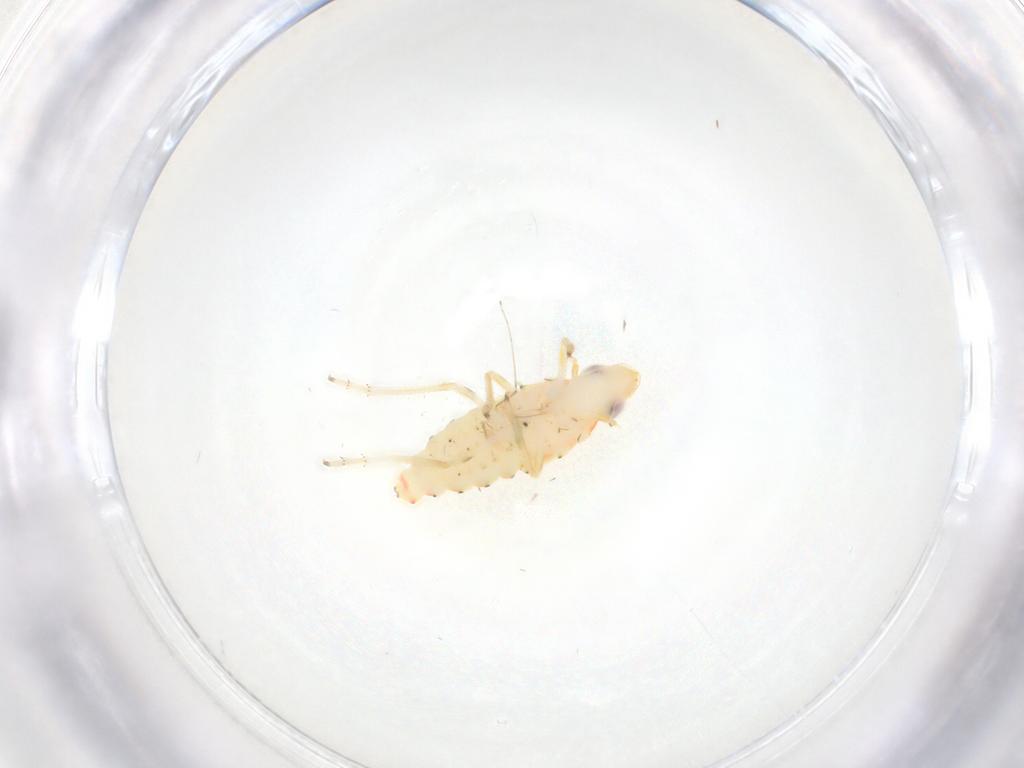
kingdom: Animalia
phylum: Arthropoda
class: Insecta
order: Hemiptera
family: Tropiduchidae
